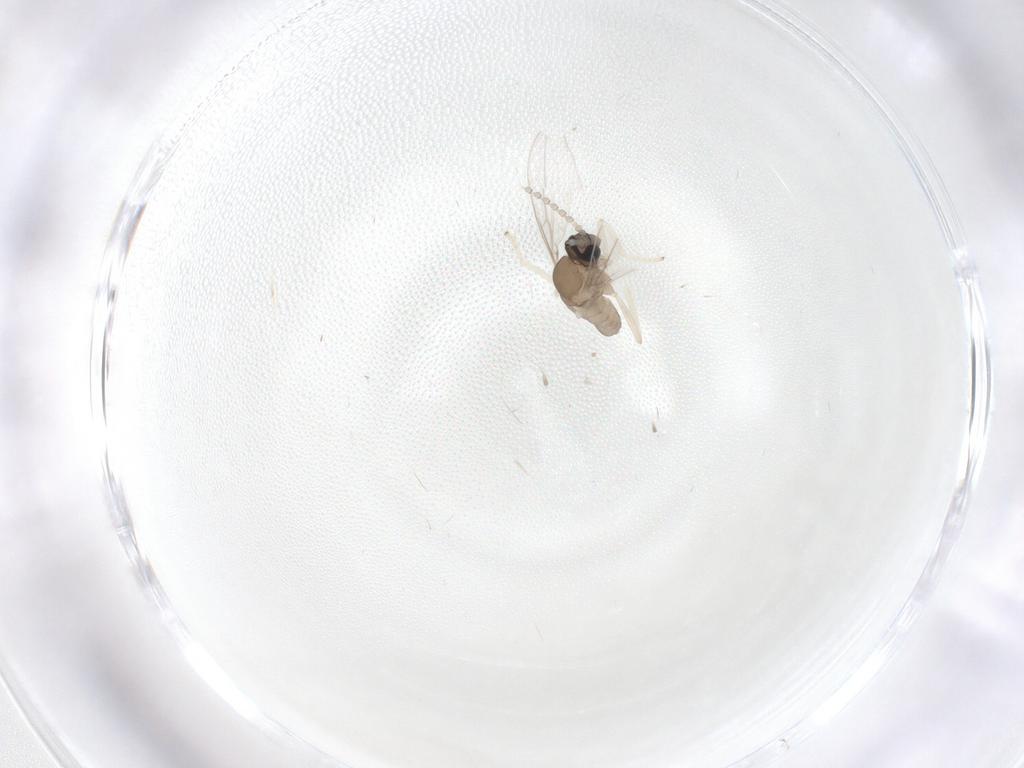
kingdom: Animalia
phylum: Arthropoda
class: Insecta
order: Diptera
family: Cecidomyiidae
